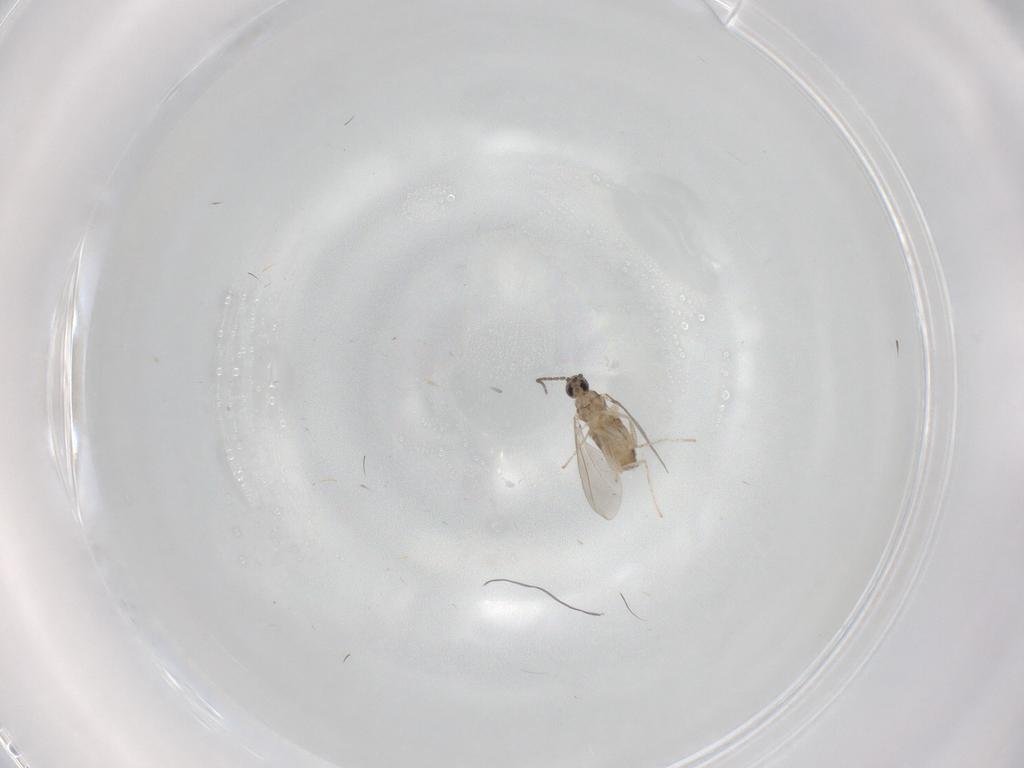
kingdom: Animalia
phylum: Arthropoda
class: Insecta
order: Diptera
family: Cecidomyiidae
